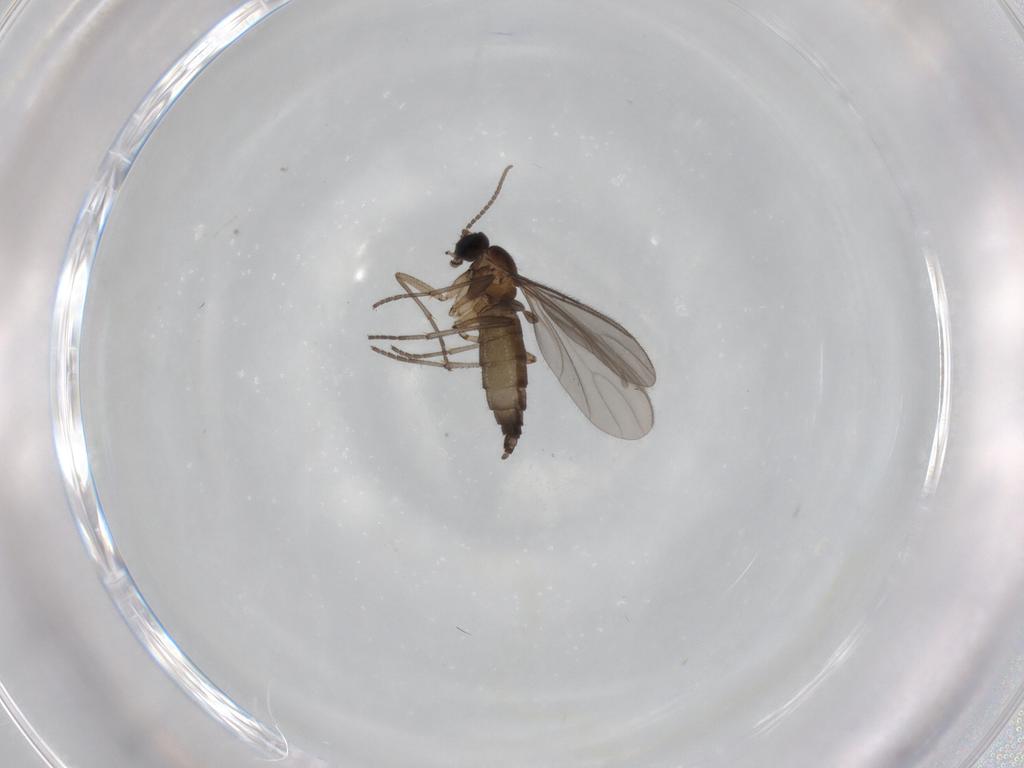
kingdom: Animalia
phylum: Arthropoda
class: Insecta
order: Diptera
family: Sciaridae
